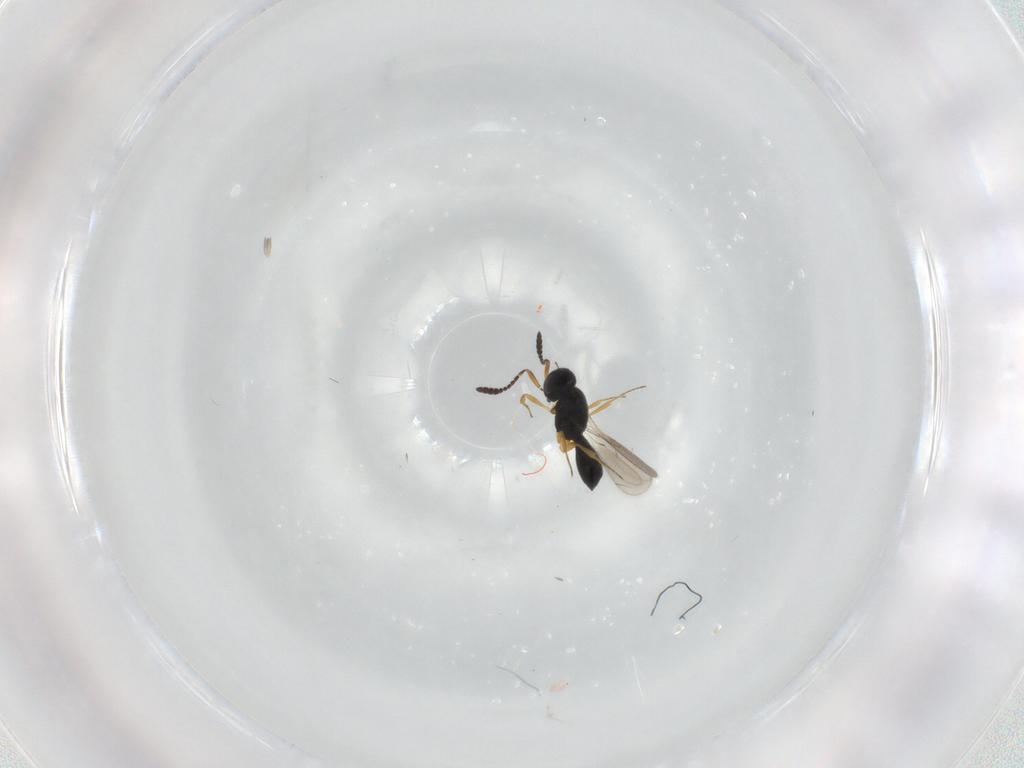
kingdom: Animalia
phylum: Arthropoda
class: Insecta
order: Hymenoptera
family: Scelionidae
